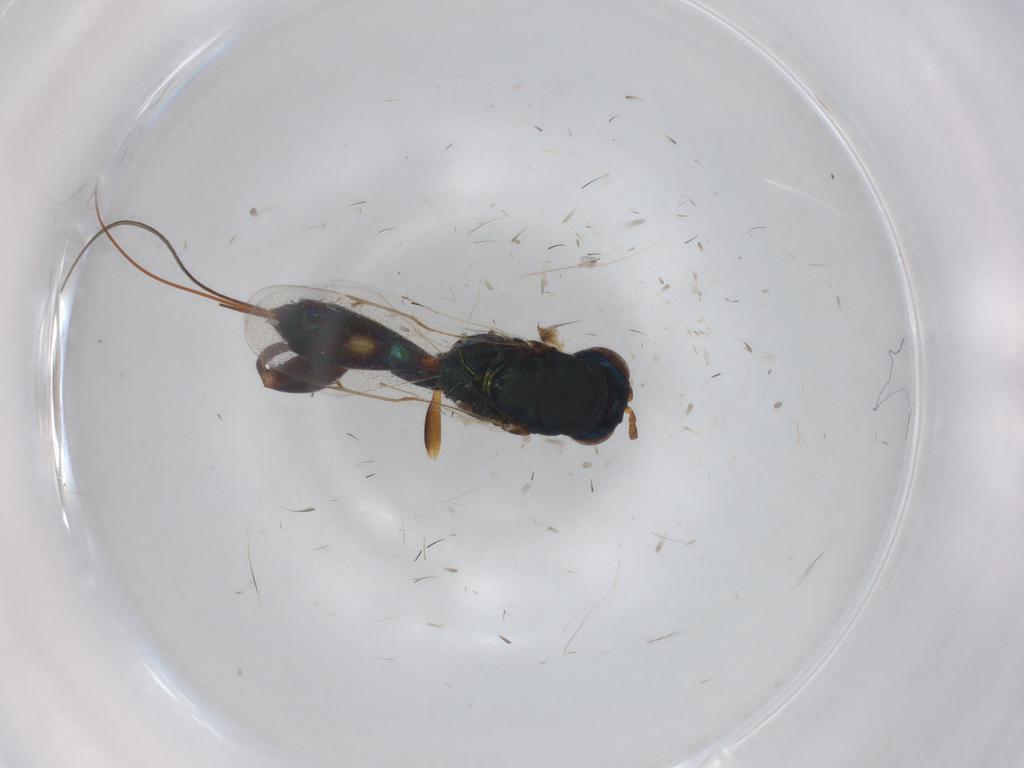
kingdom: Animalia
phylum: Arthropoda
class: Insecta
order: Hymenoptera
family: Torymidae
